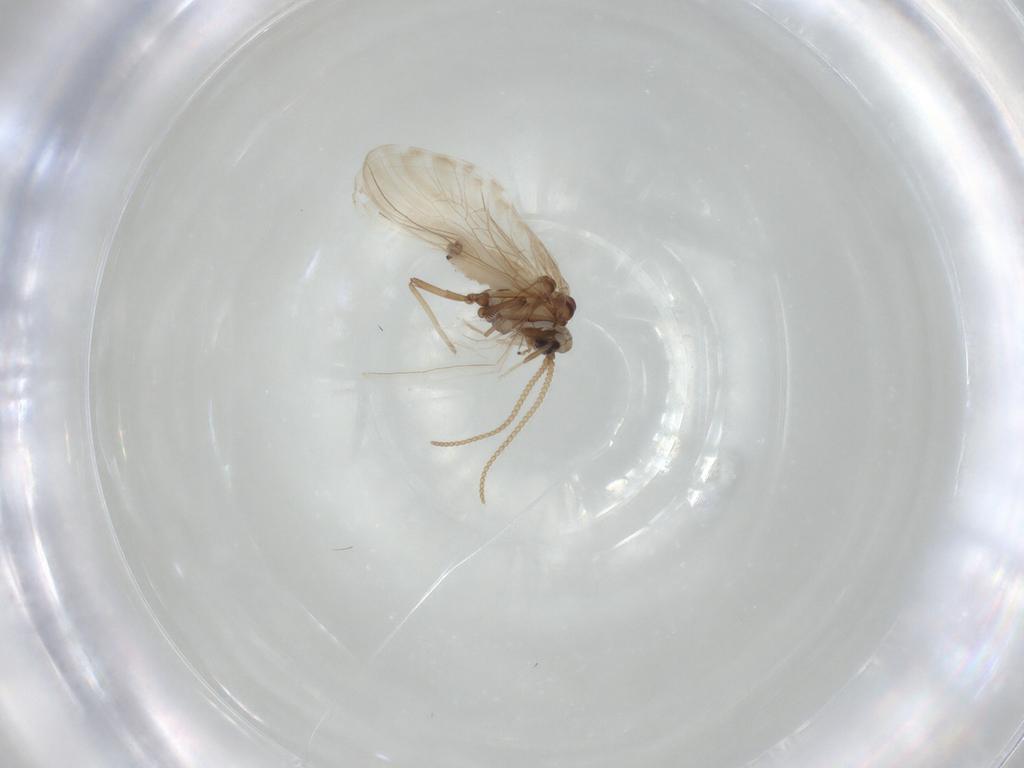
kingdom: Animalia
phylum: Arthropoda
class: Insecta
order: Neuroptera
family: Coniopterygidae
